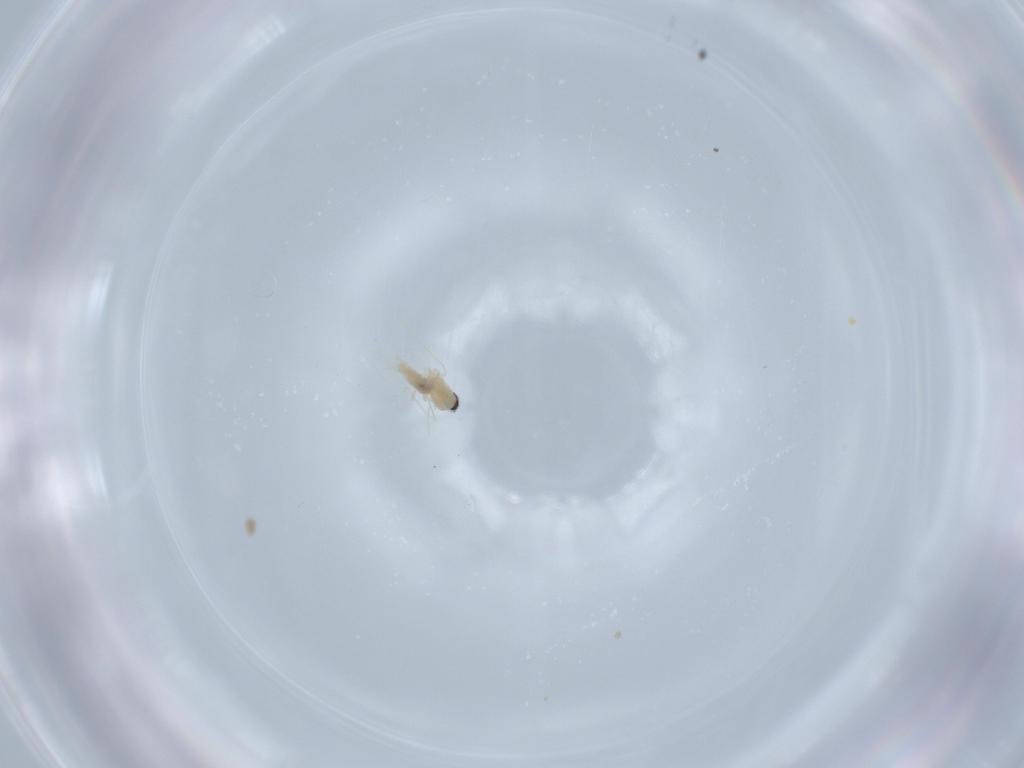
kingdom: Animalia
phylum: Arthropoda
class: Insecta
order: Diptera
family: Cecidomyiidae
